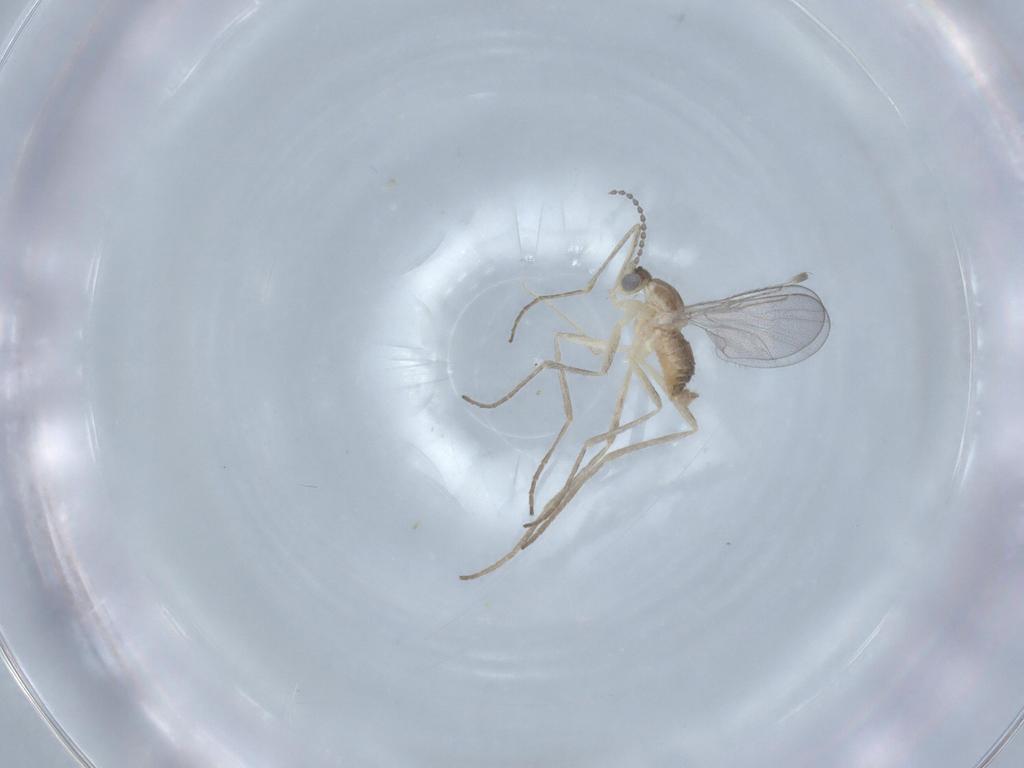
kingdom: Animalia
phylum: Arthropoda
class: Insecta
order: Diptera
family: Cecidomyiidae
